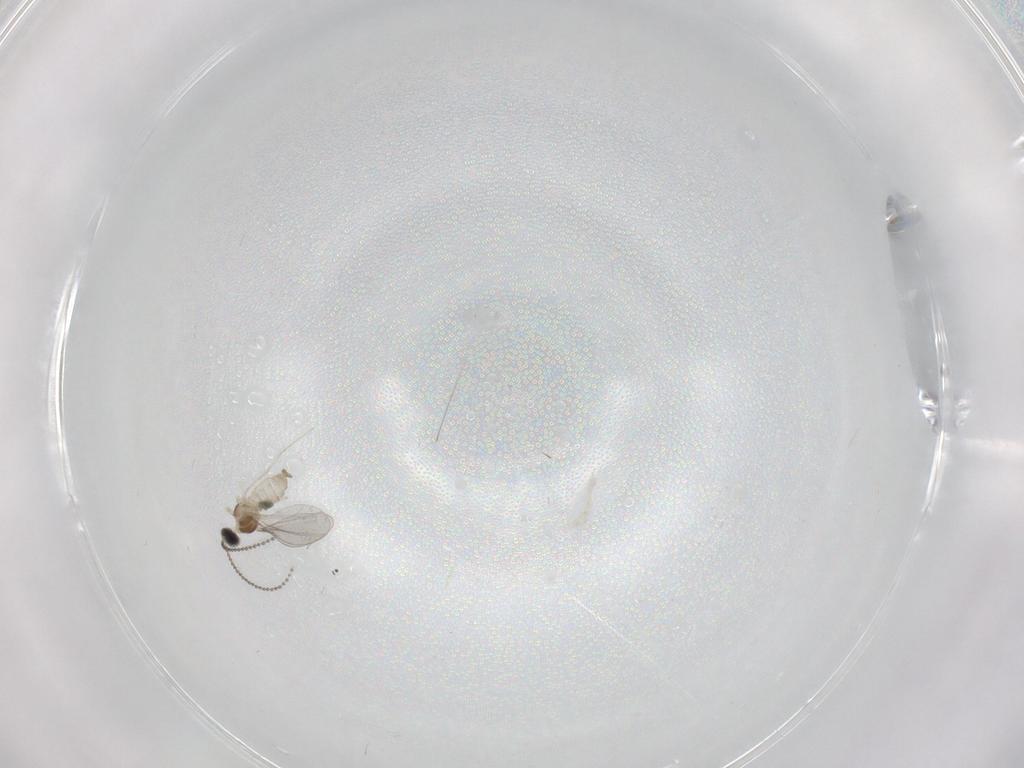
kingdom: Animalia
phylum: Arthropoda
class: Insecta
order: Diptera
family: Cecidomyiidae
